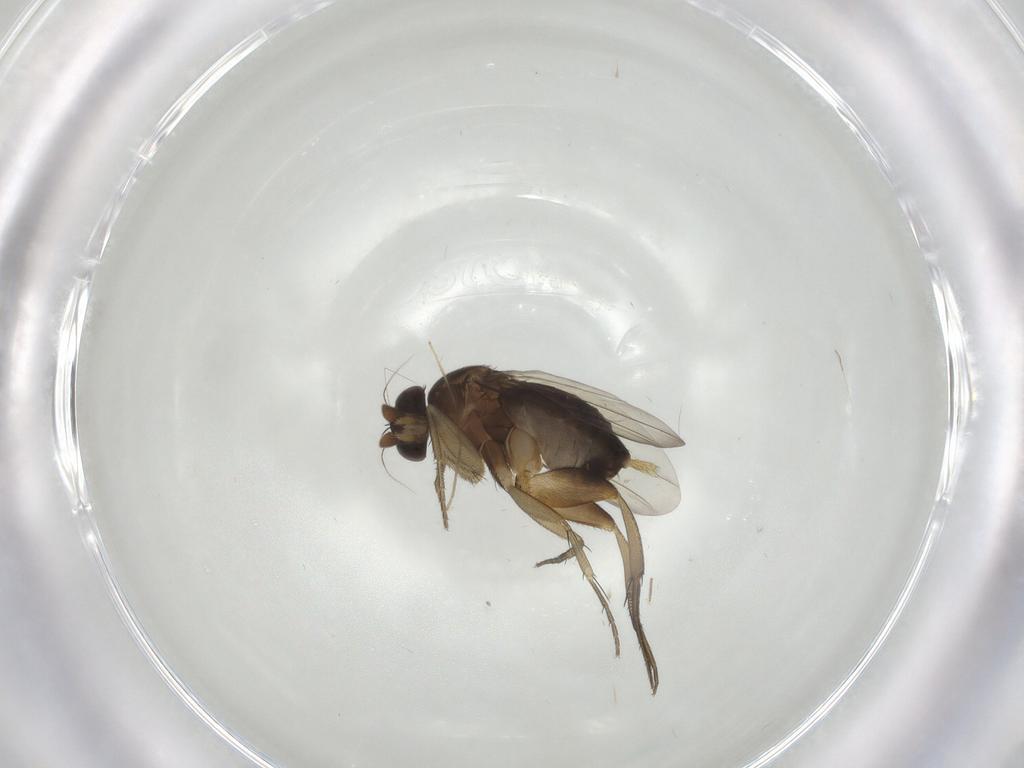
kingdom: Animalia
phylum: Arthropoda
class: Insecta
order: Diptera
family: Phoridae
